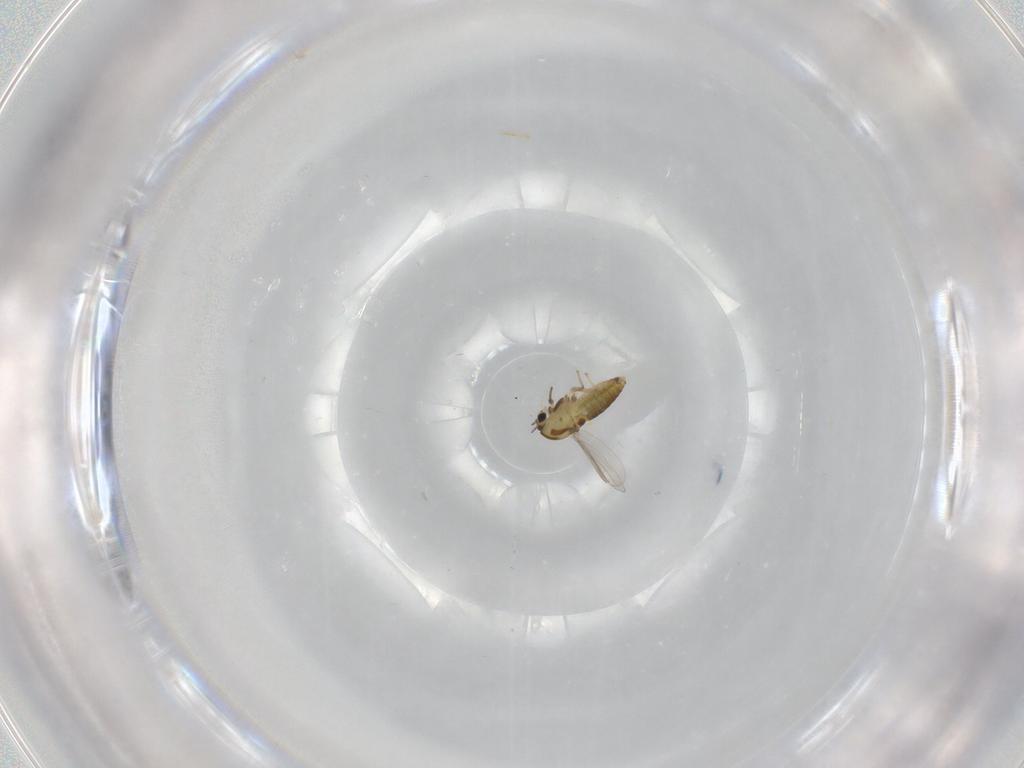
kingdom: Animalia
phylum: Arthropoda
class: Insecta
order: Diptera
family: Chironomidae
